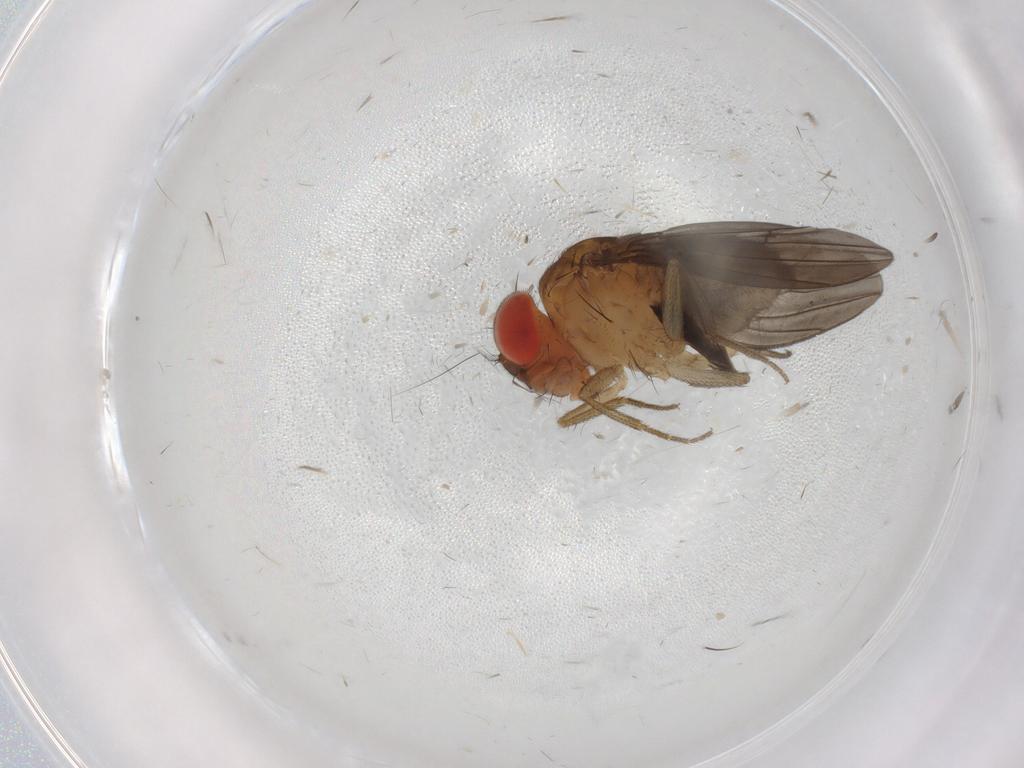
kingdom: Animalia
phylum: Arthropoda
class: Insecta
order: Diptera
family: Drosophilidae
